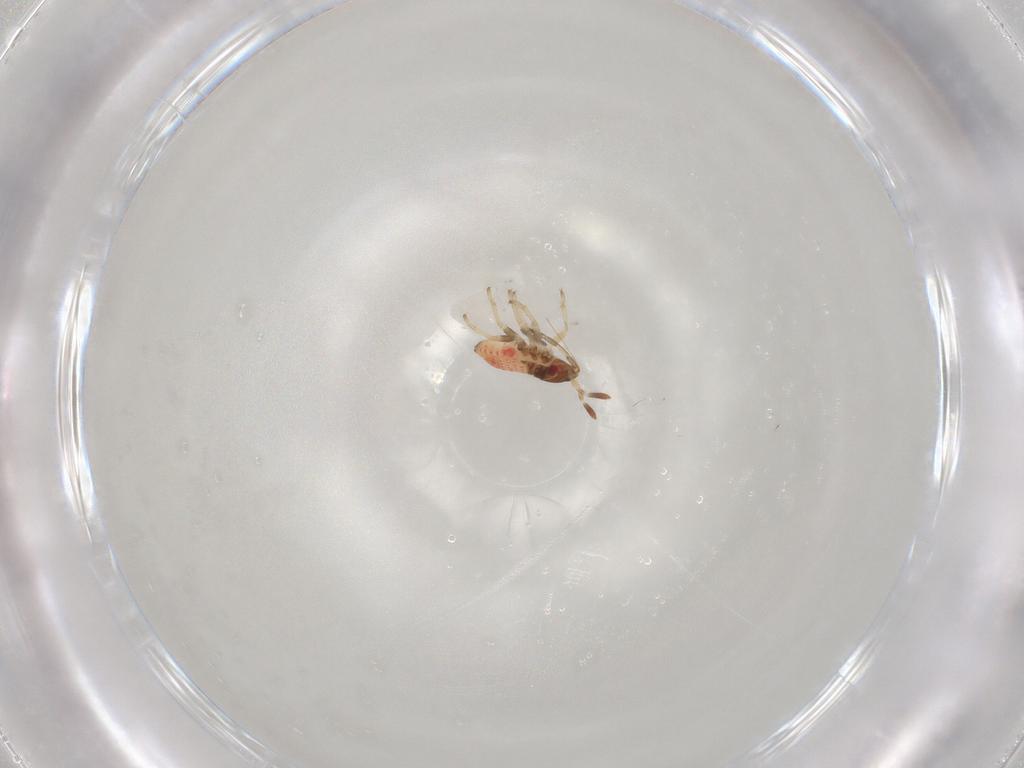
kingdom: Animalia
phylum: Arthropoda
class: Insecta
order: Hemiptera
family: Lygaeidae
